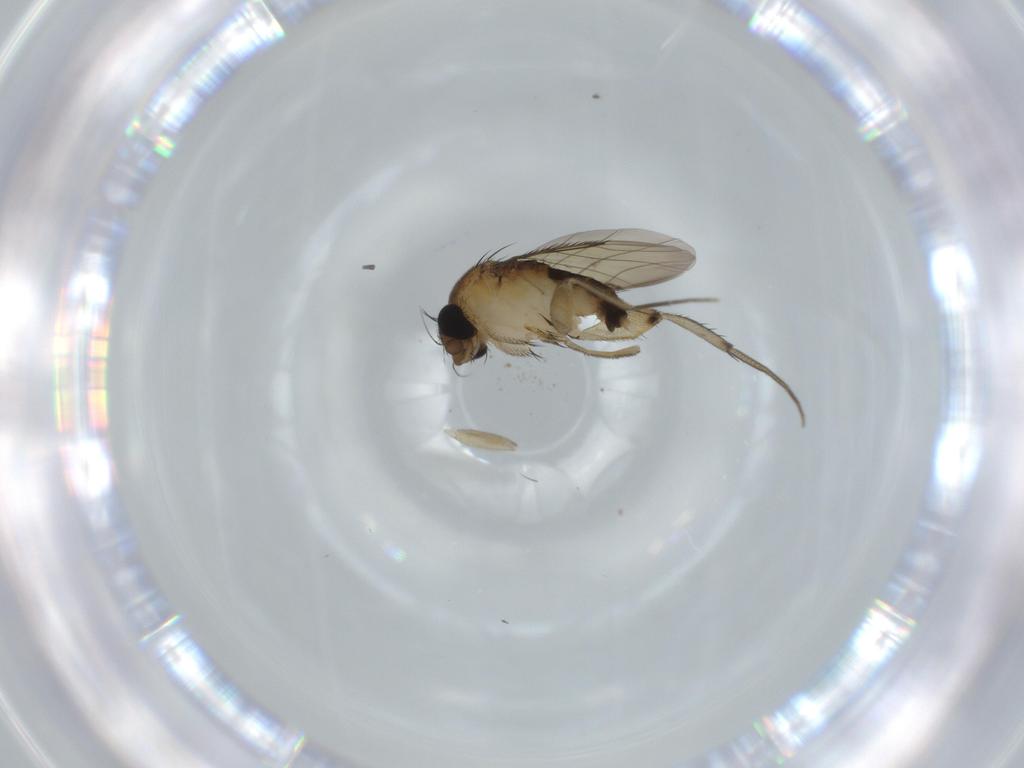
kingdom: Animalia
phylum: Arthropoda
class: Insecta
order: Diptera
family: Phoridae
